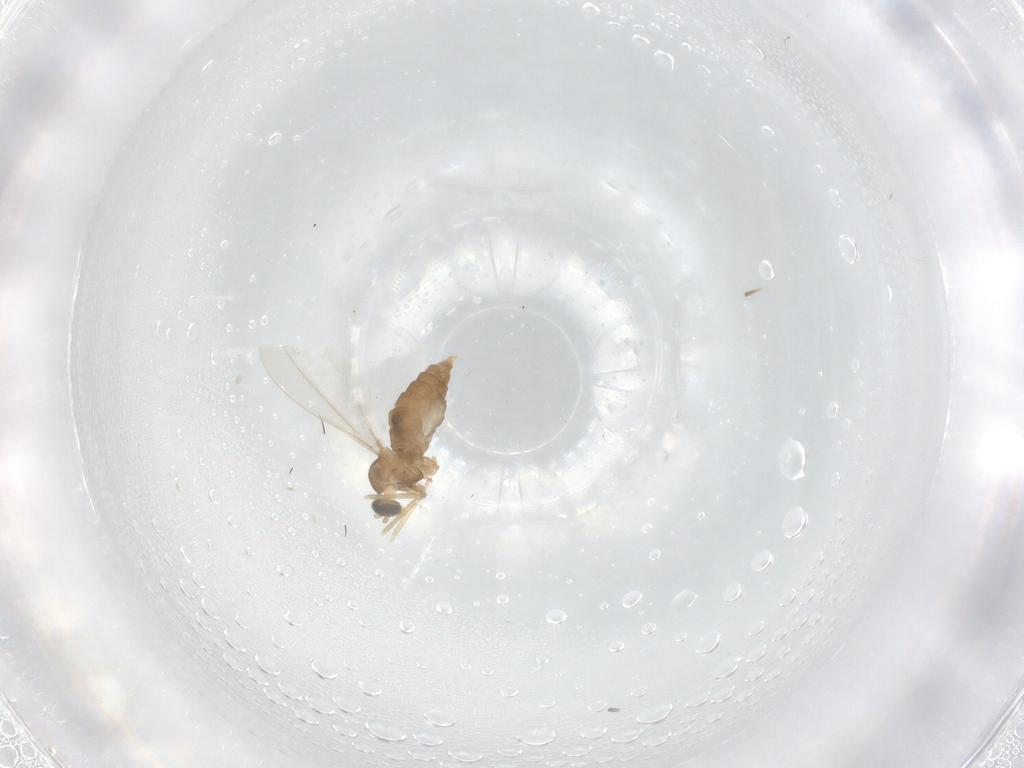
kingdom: Animalia
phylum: Arthropoda
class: Insecta
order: Diptera
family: Cecidomyiidae
